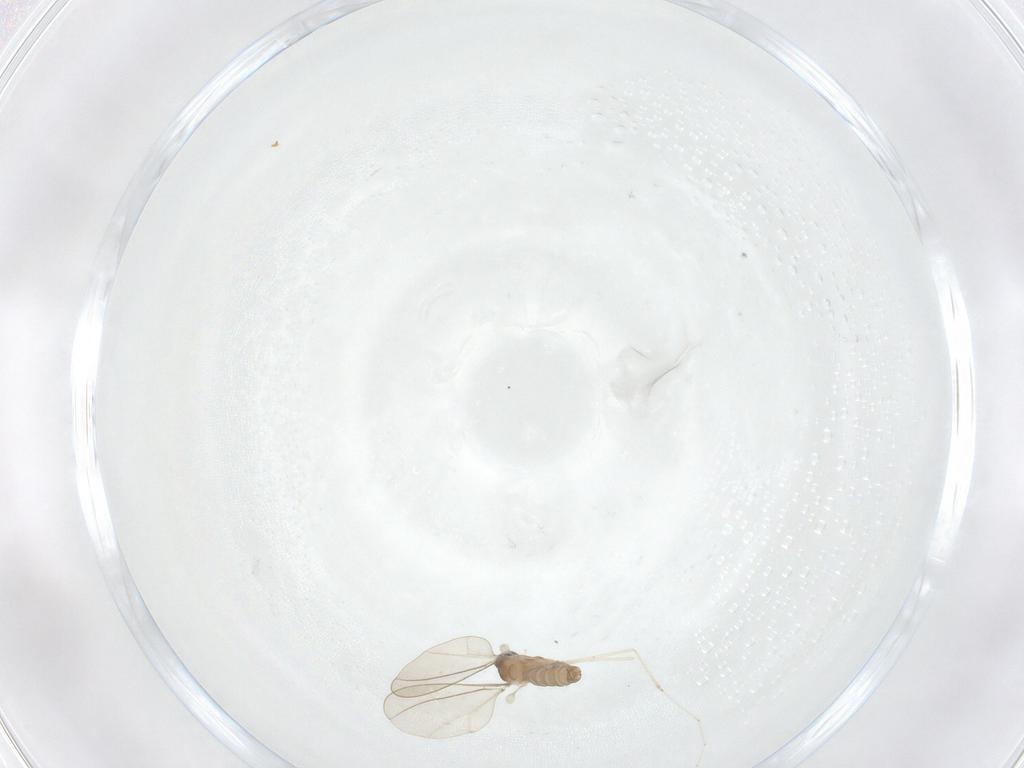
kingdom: Animalia
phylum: Arthropoda
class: Insecta
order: Diptera
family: Cecidomyiidae
